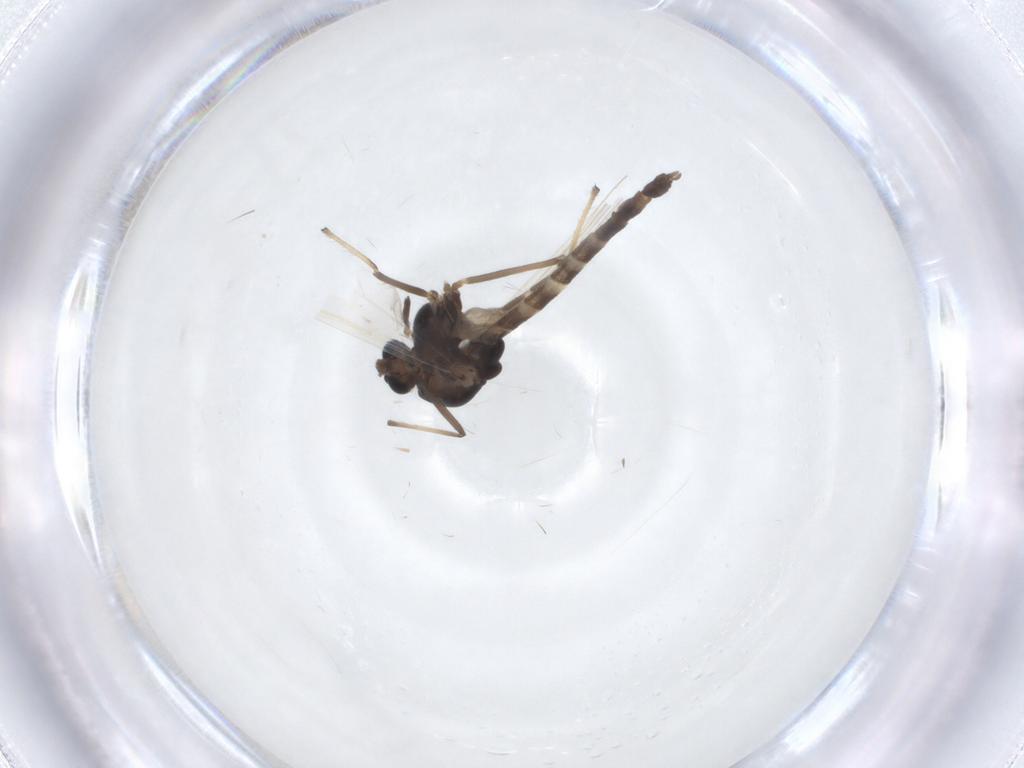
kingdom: Animalia
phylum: Arthropoda
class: Insecta
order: Diptera
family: Chironomidae
